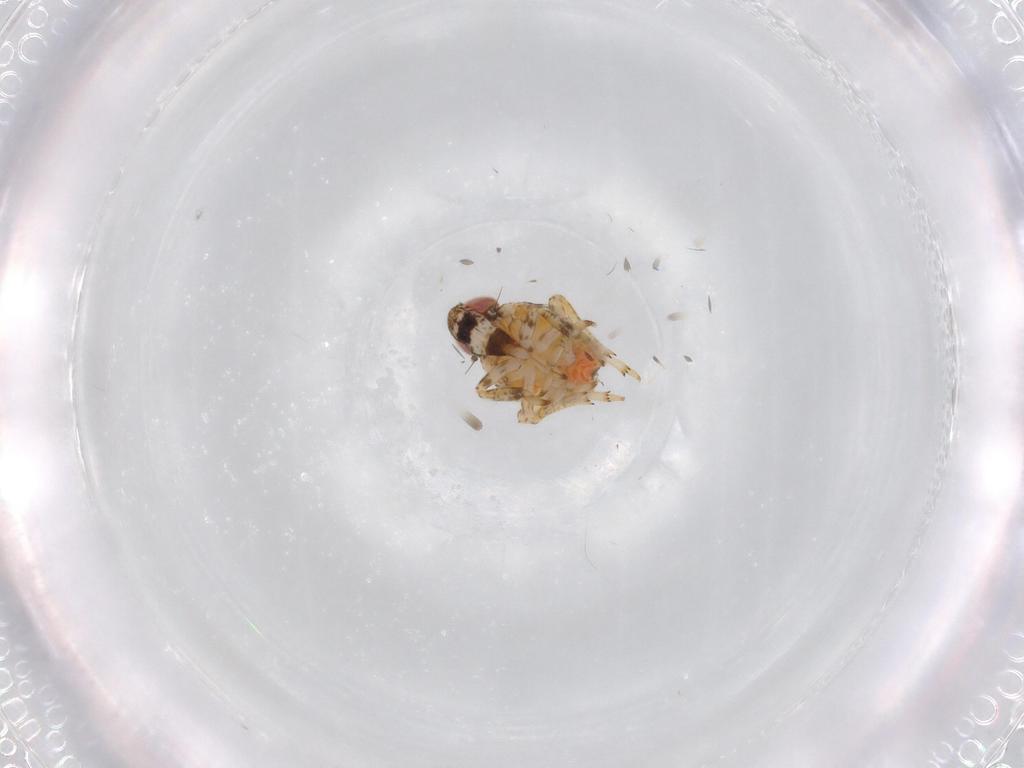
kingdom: Animalia
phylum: Arthropoda
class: Insecta
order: Hemiptera
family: Issidae
